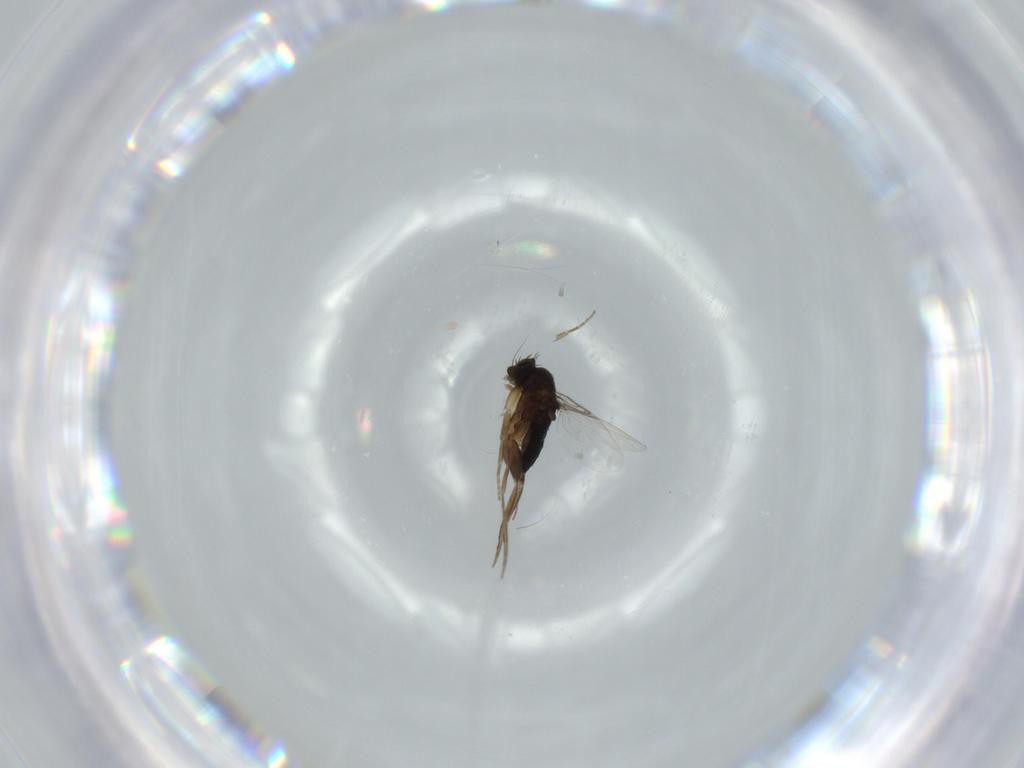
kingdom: Animalia
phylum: Arthropoda
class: Insecta
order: Diptera
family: Phoridae
